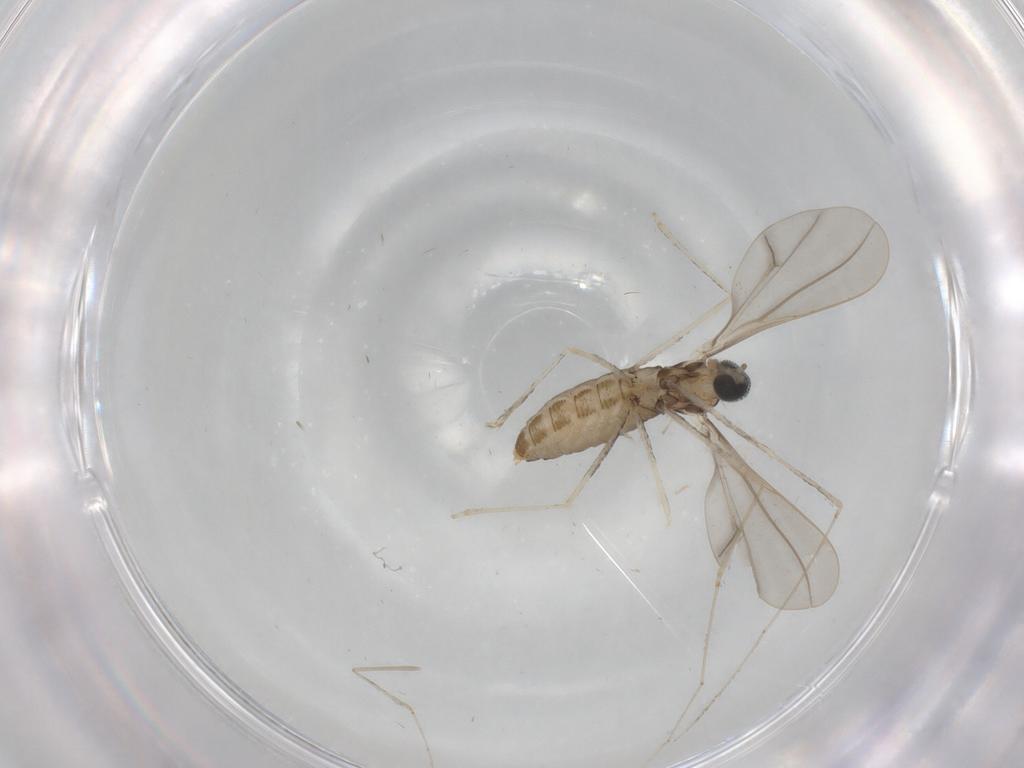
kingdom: Animalia
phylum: Arthropoda
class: Insecta
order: Diptera
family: Cecidomyiidae
